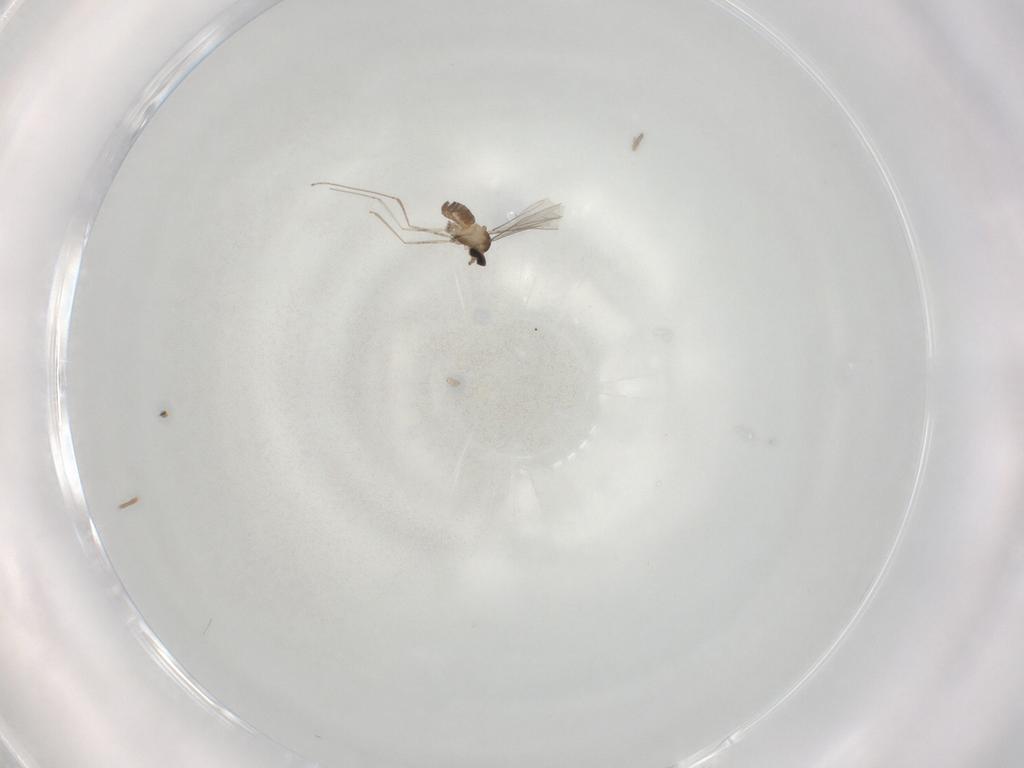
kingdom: Animalia
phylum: Arthropoda
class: Insecta
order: Diptera
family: Cecidomyiidae
